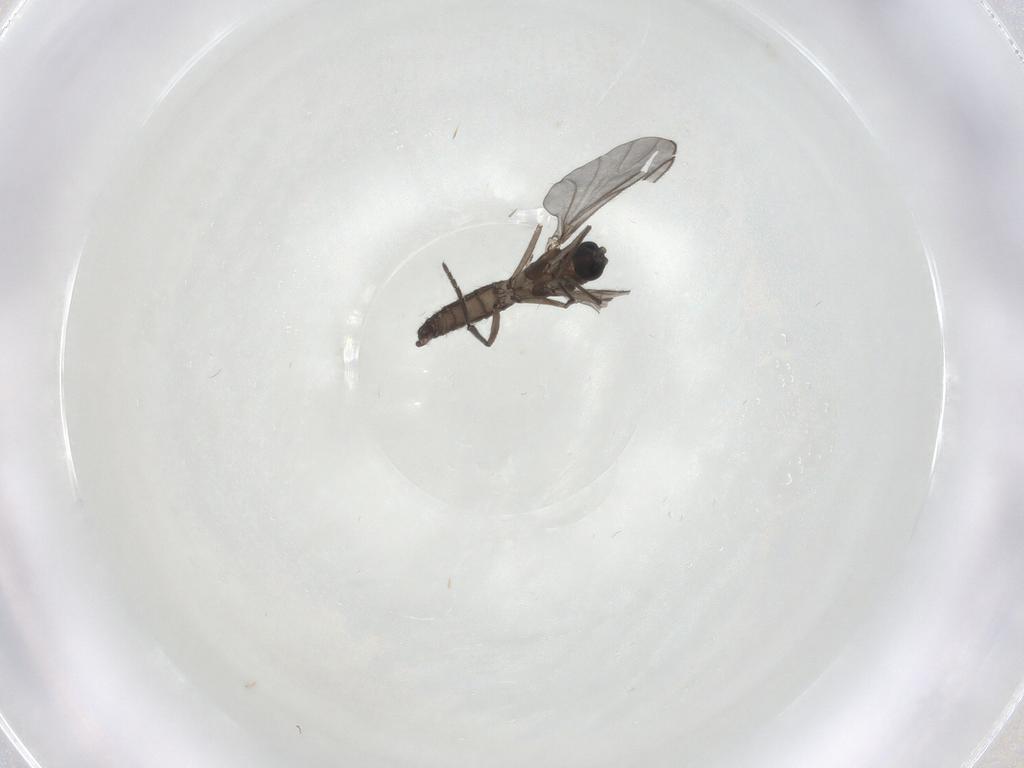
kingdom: Animalia
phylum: Arthropoda
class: Insecta
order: Diptera
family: Sciaridae
